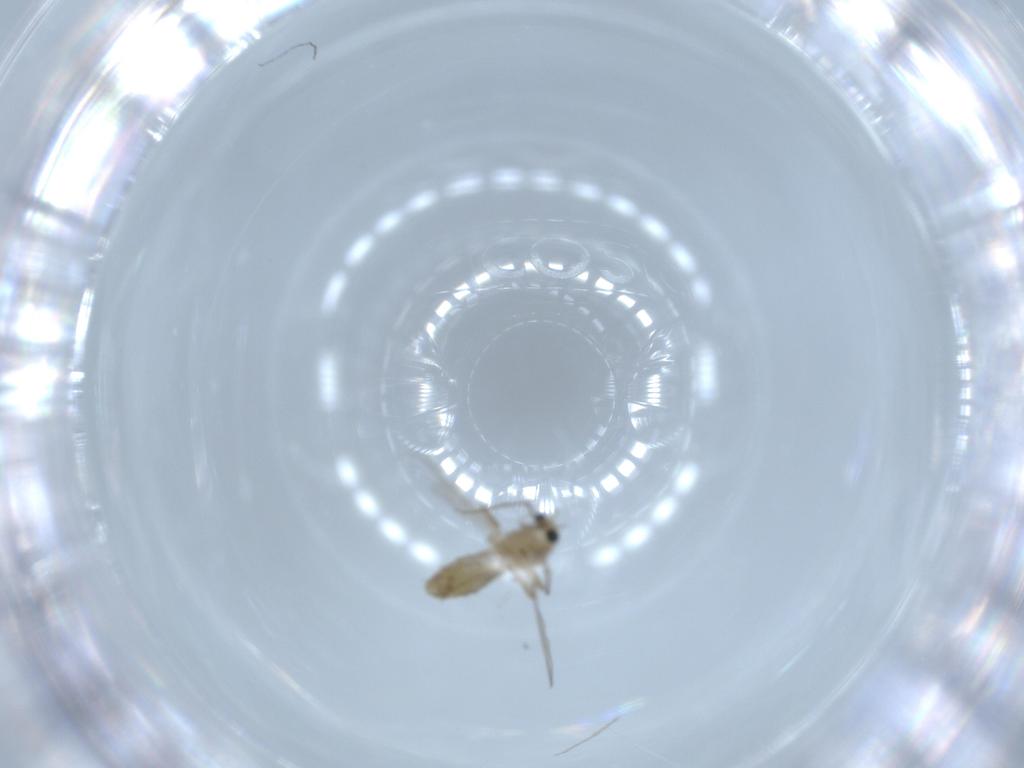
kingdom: Animalia
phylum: Arthropoda
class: Insecta
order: Diptera
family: Chironomidae
